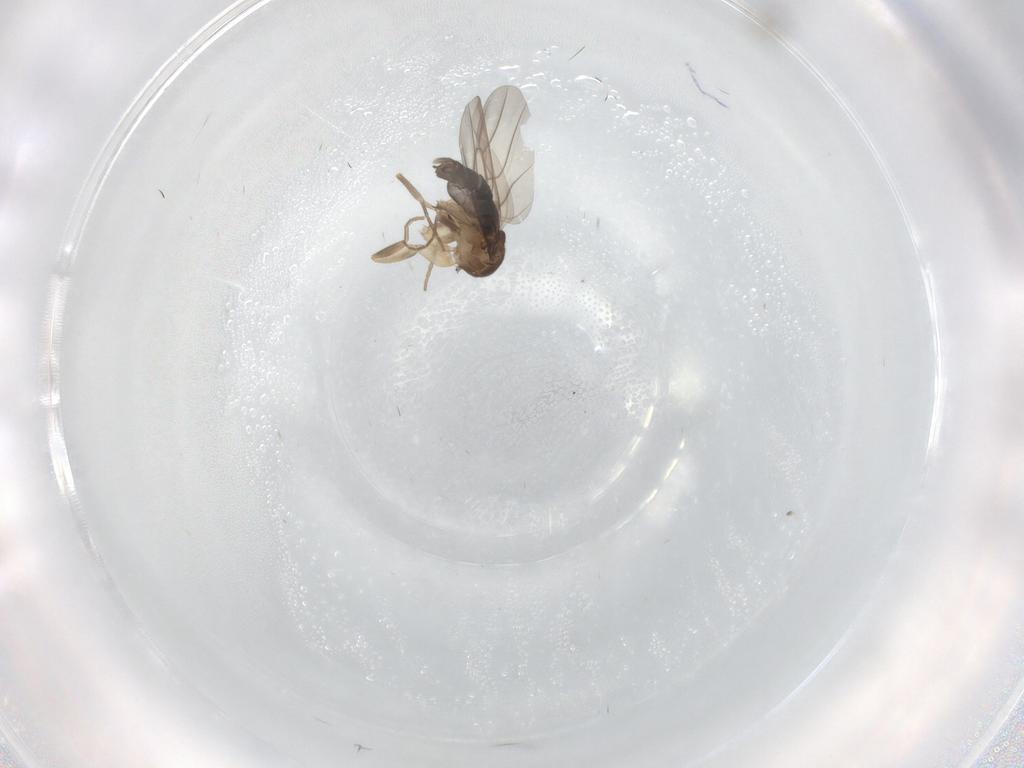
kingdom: Animalia
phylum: Arthropoda
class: Insecta
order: Diptera
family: Phoridae
